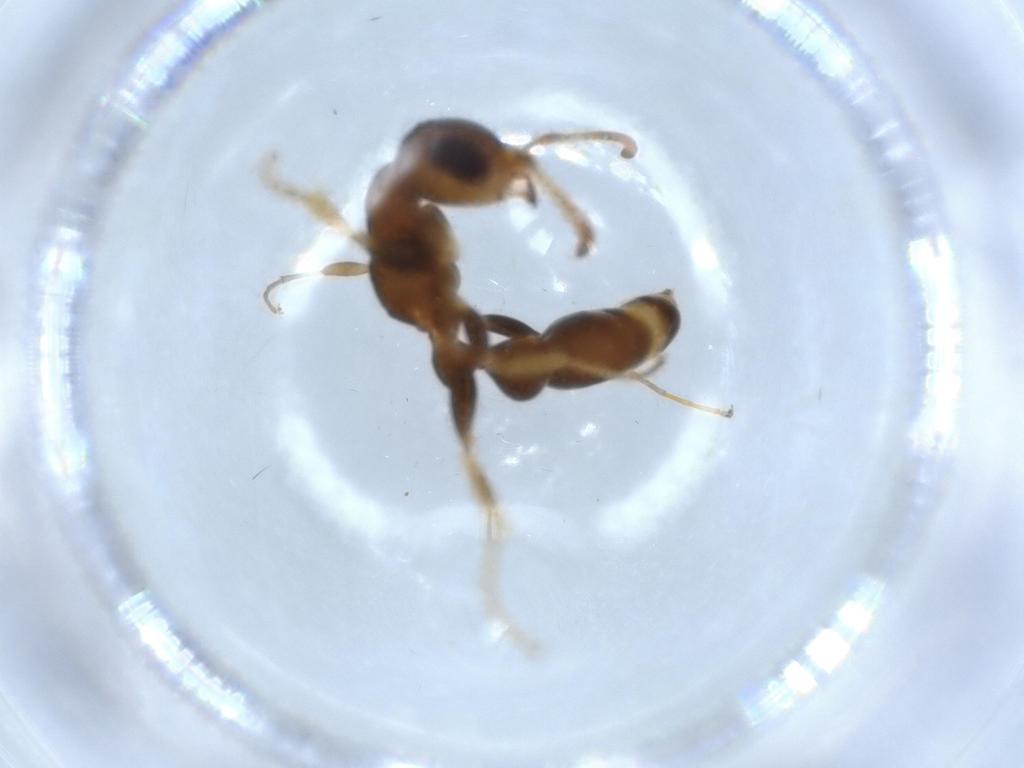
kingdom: Animalia
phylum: Arthropoda
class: Insecta
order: Hymenoptera
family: Formicidae
